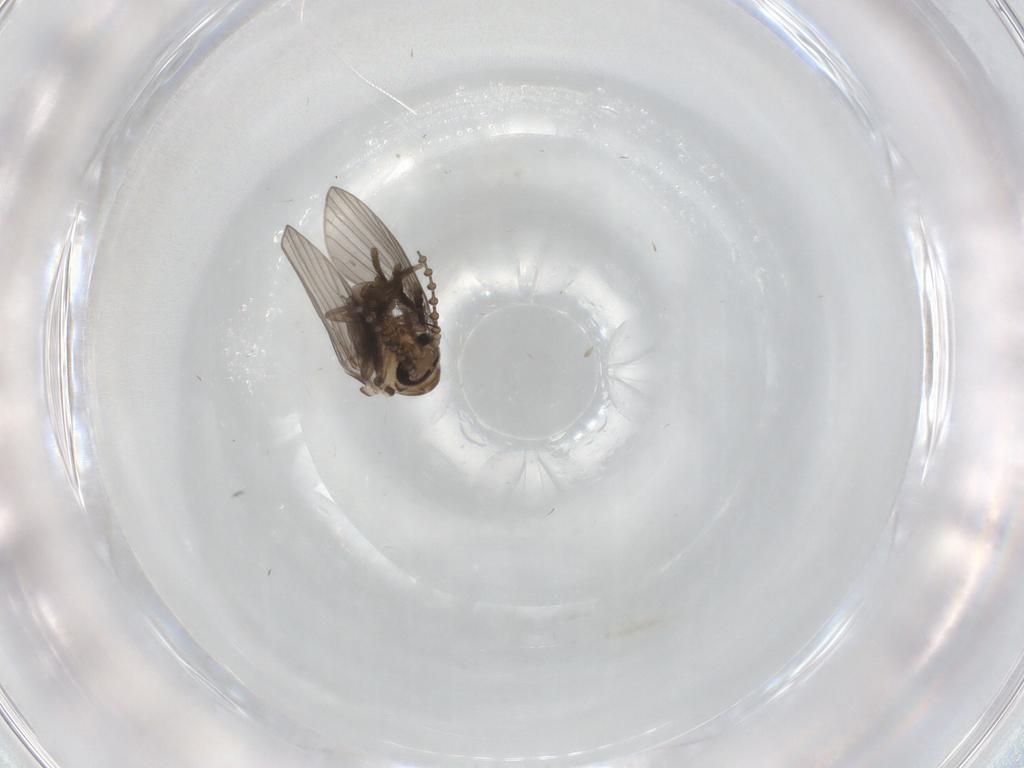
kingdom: Animalia
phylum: Arthropoda
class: Insecta
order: Diptera
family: Psychodidae
